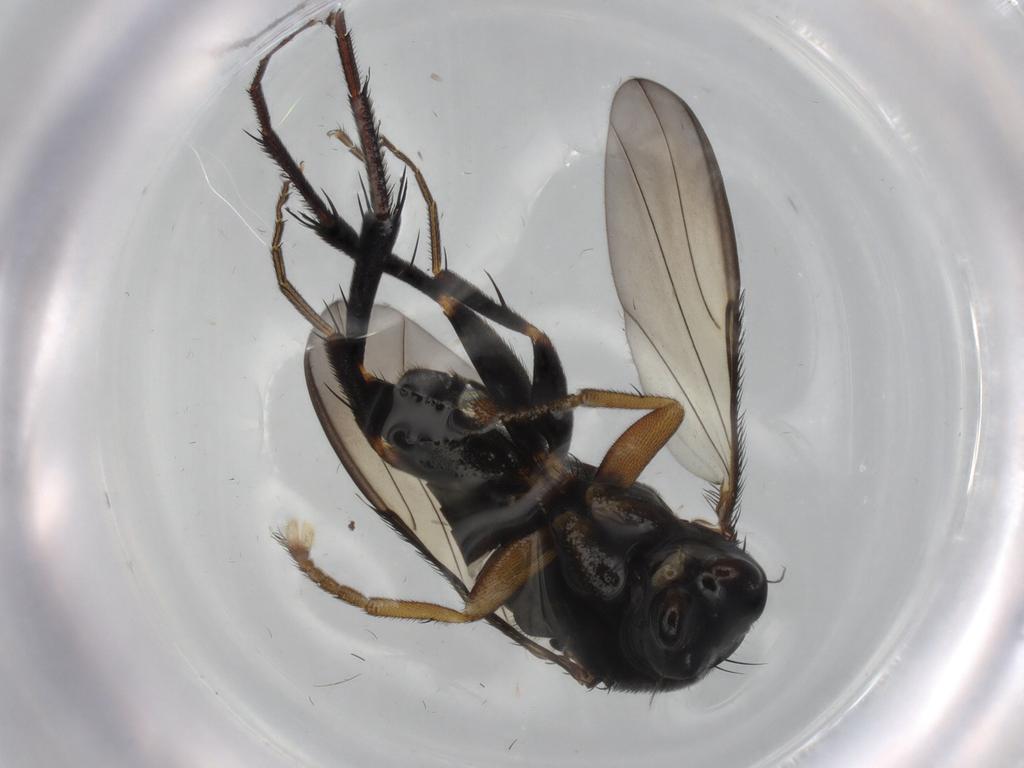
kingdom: Animalia
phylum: Arthropoda
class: Insecta
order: Diptera
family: Phoridae
